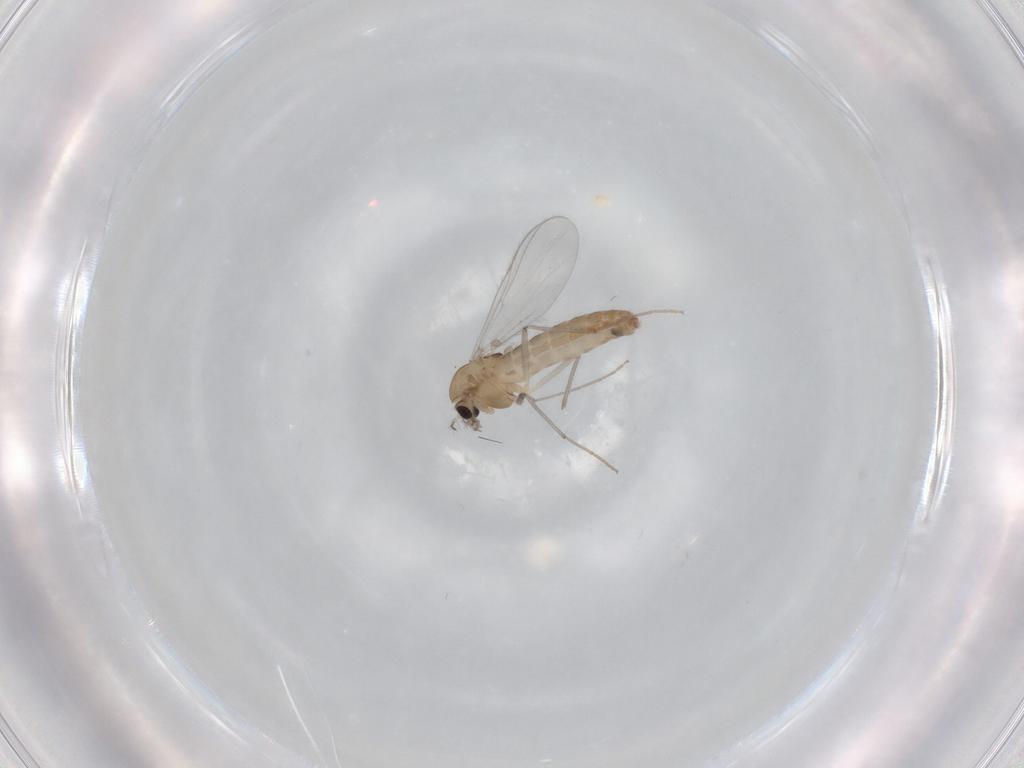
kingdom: Animalia
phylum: Arthropoda
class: Insecta
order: Diptera
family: Chironomidae
